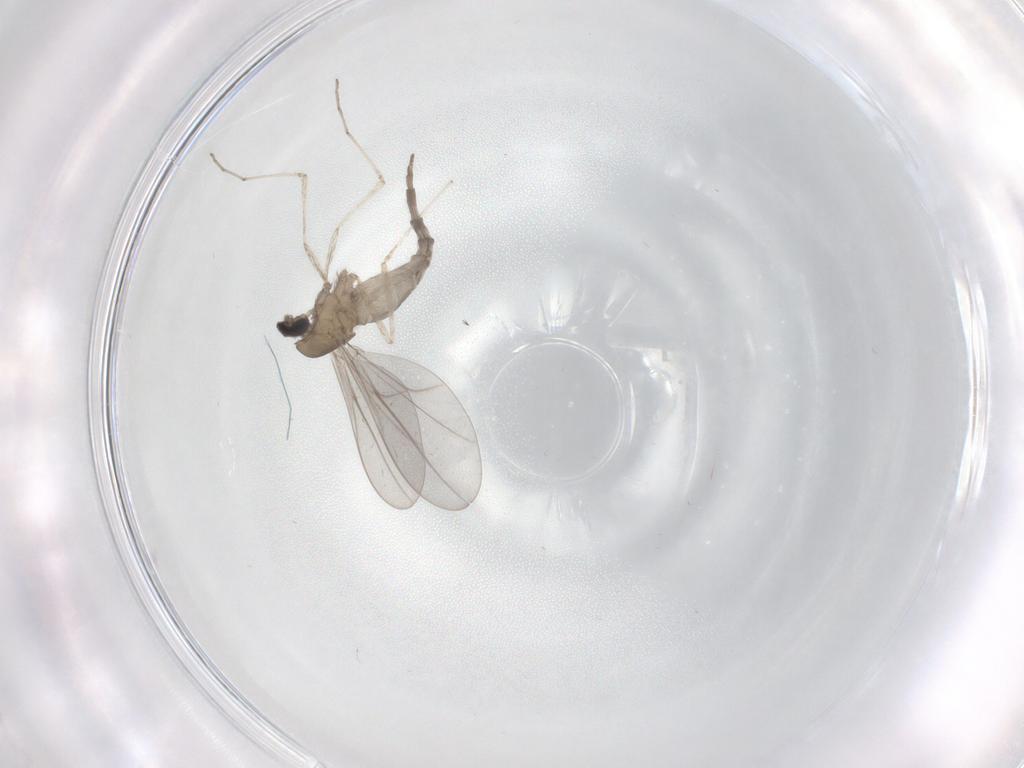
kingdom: Animalia
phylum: Arthropoda
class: Insecta
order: Diptera
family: Cecidomyiidae
